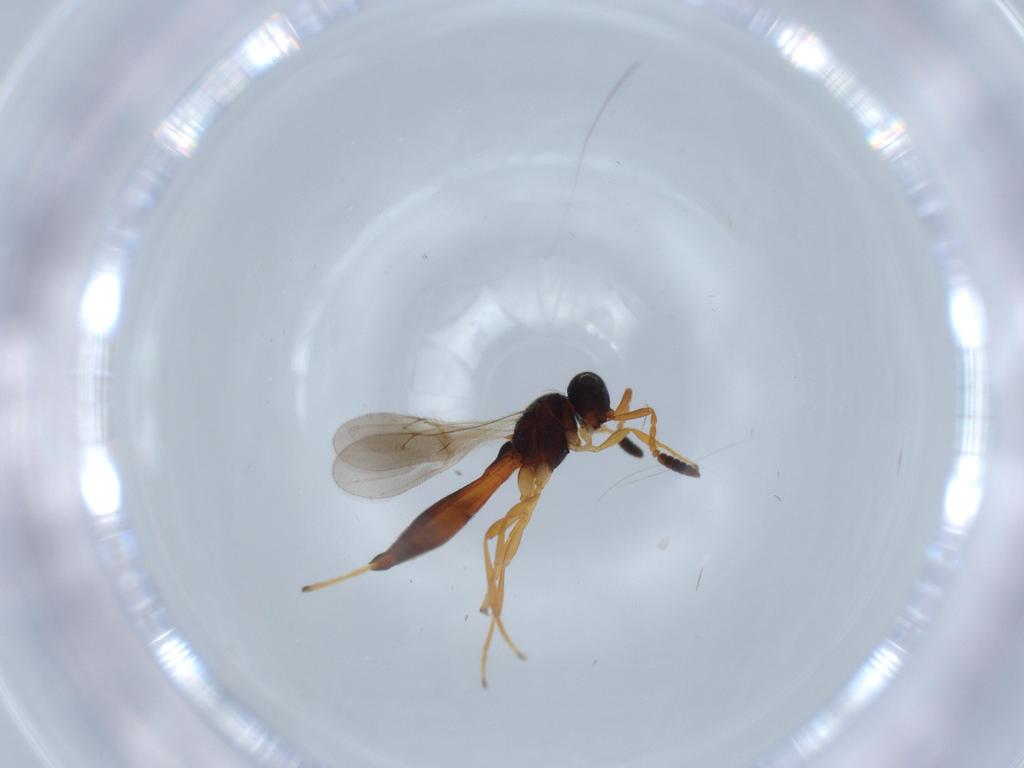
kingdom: Animalia
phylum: Arthropoda
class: Insecta
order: Hymenoptera
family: Scelionidae
